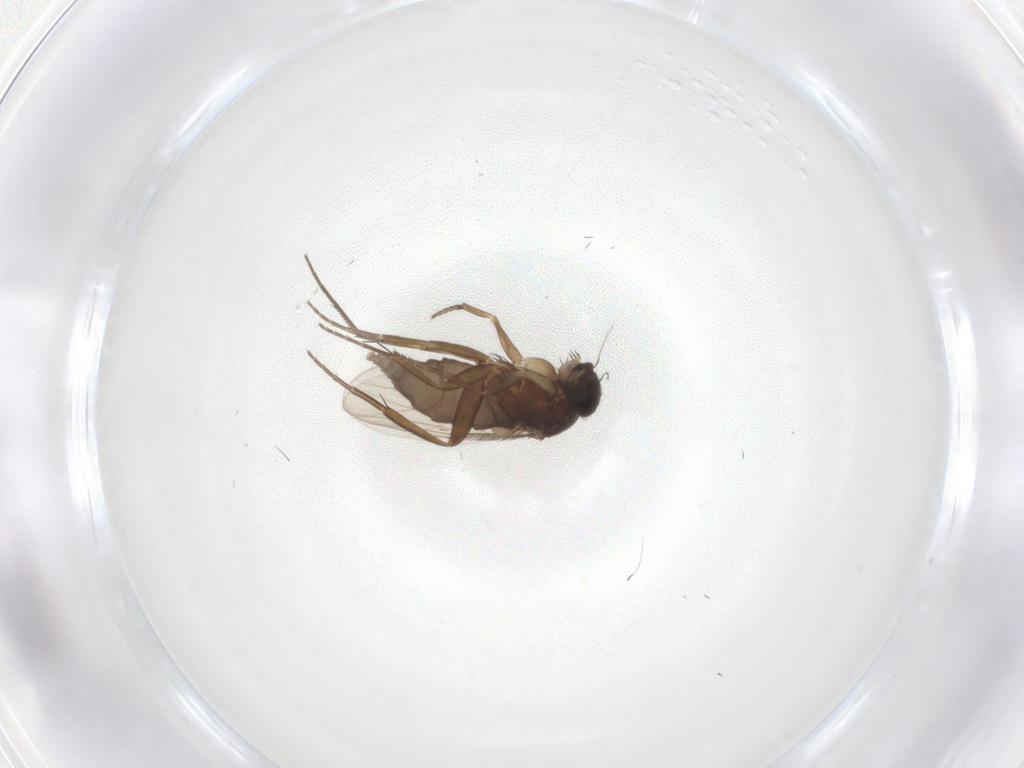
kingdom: Animalia
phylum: Arthropoda
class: Insecta
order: Diptera
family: Phoridae
